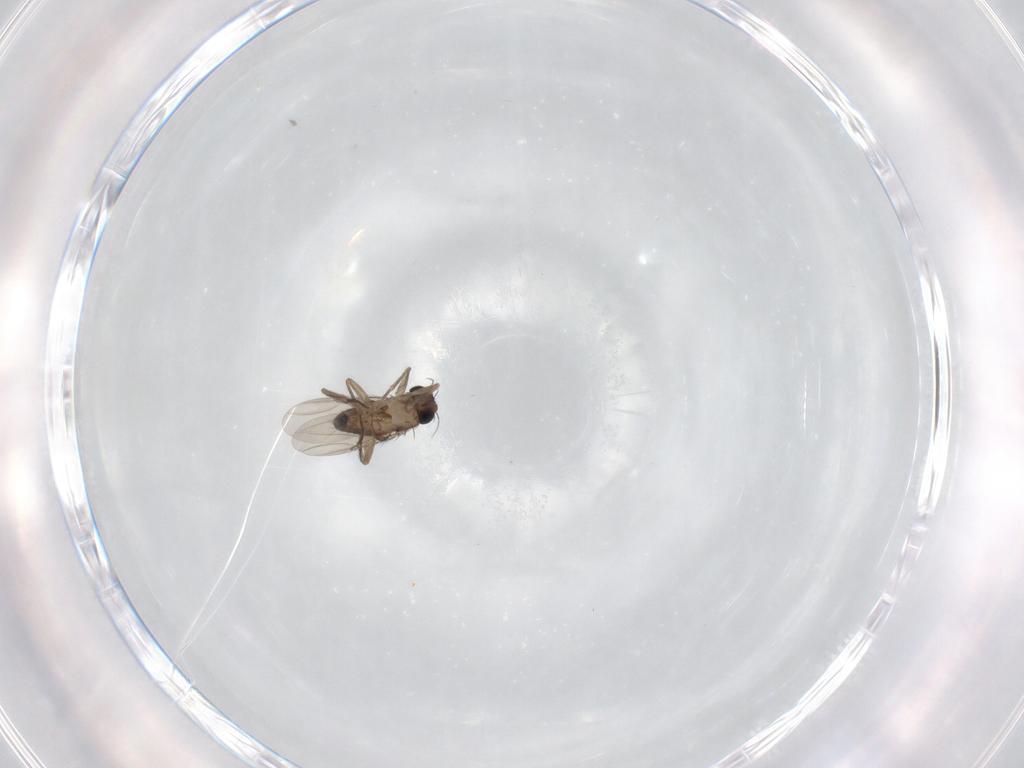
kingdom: Animalia
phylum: Arthropoda
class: Insecta
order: Diptera
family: Phoridae
